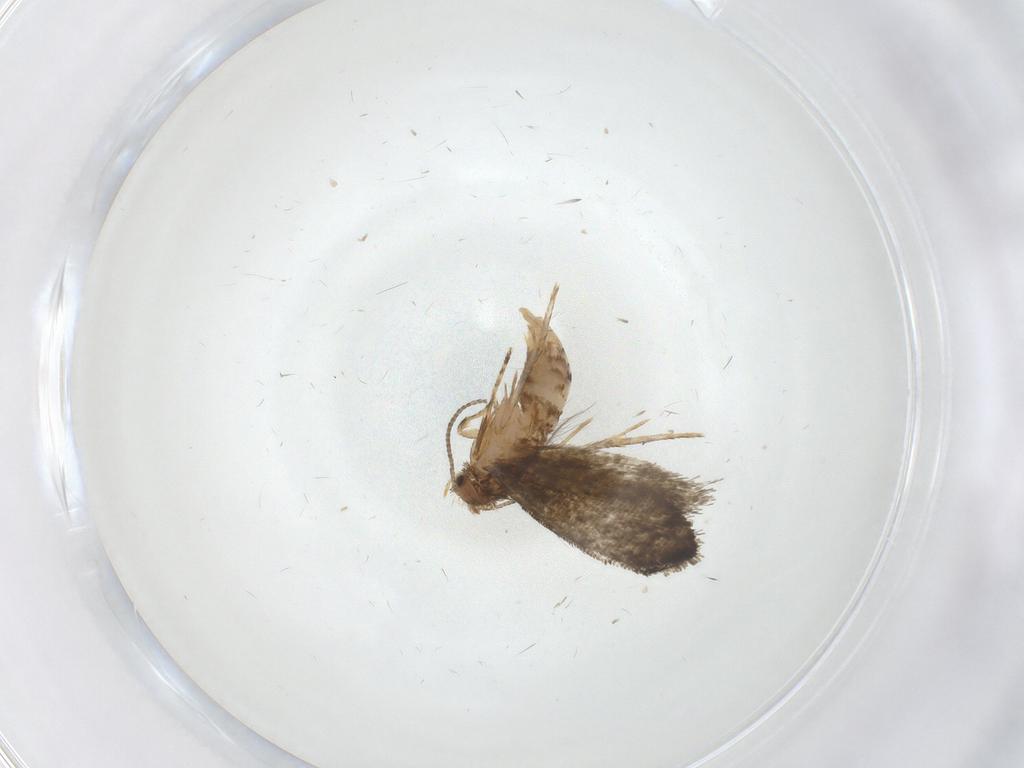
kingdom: Animalia
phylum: Arthropoda
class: Insecta
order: Lepidoptera
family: Tineidae
